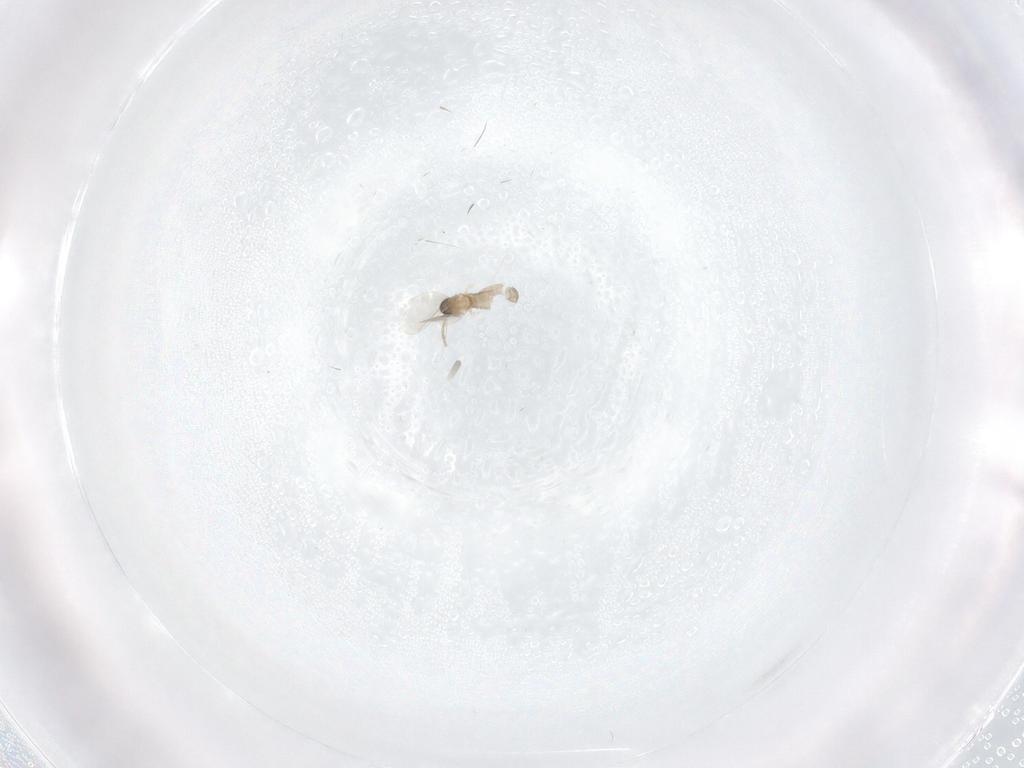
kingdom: Animalia
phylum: Arthropoda
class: Insecta
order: Diptera
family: Cecidomyiidae
